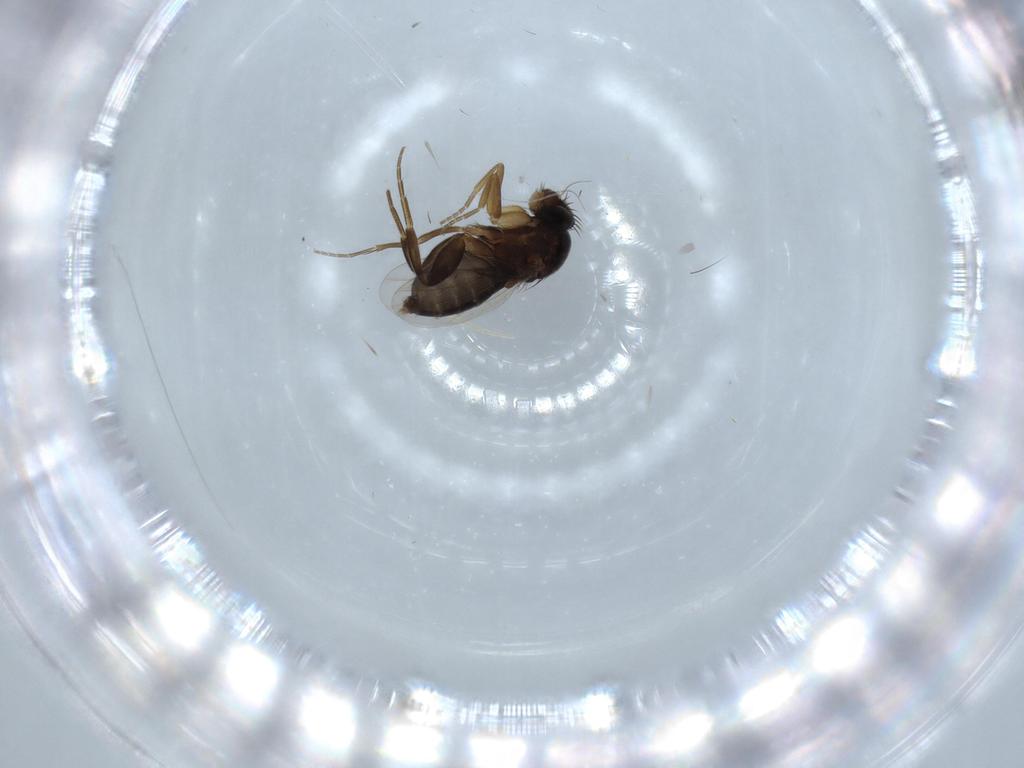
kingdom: Animalia
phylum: Arthropoda
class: Insecta
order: Diptera
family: Phoridae
